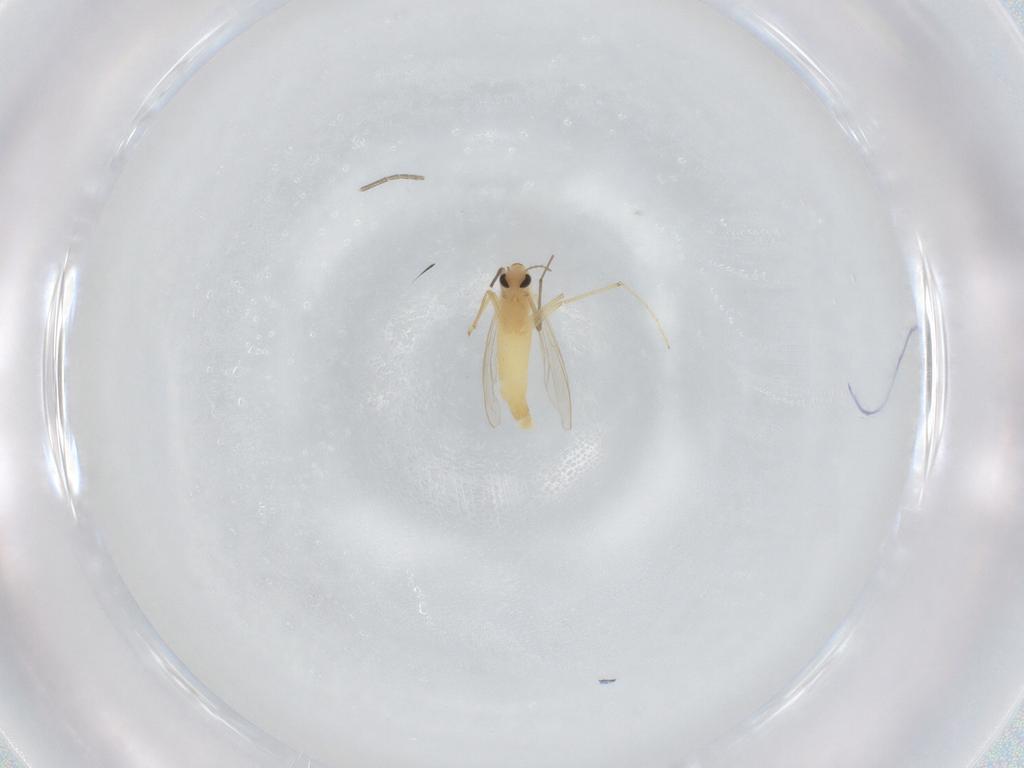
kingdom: Animalia
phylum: Arthropoda
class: Insecta
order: Diptera
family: Chironomidae
